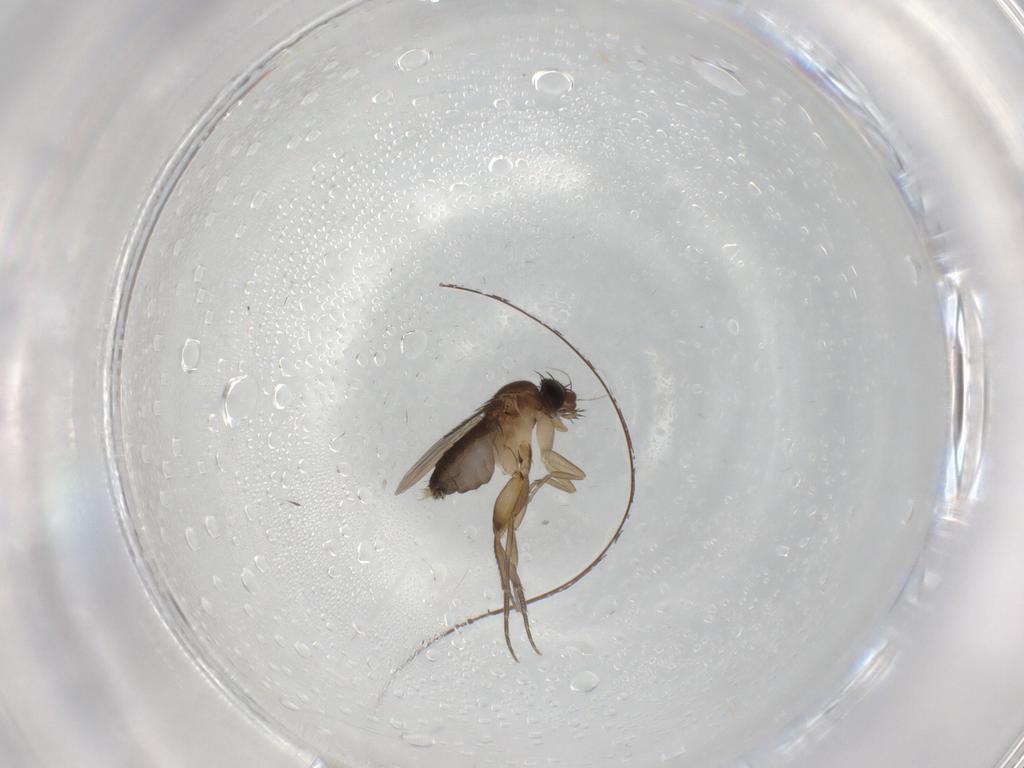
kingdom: Animalia
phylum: Arthropoda
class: Insecta
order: Diptera
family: Phoridae
